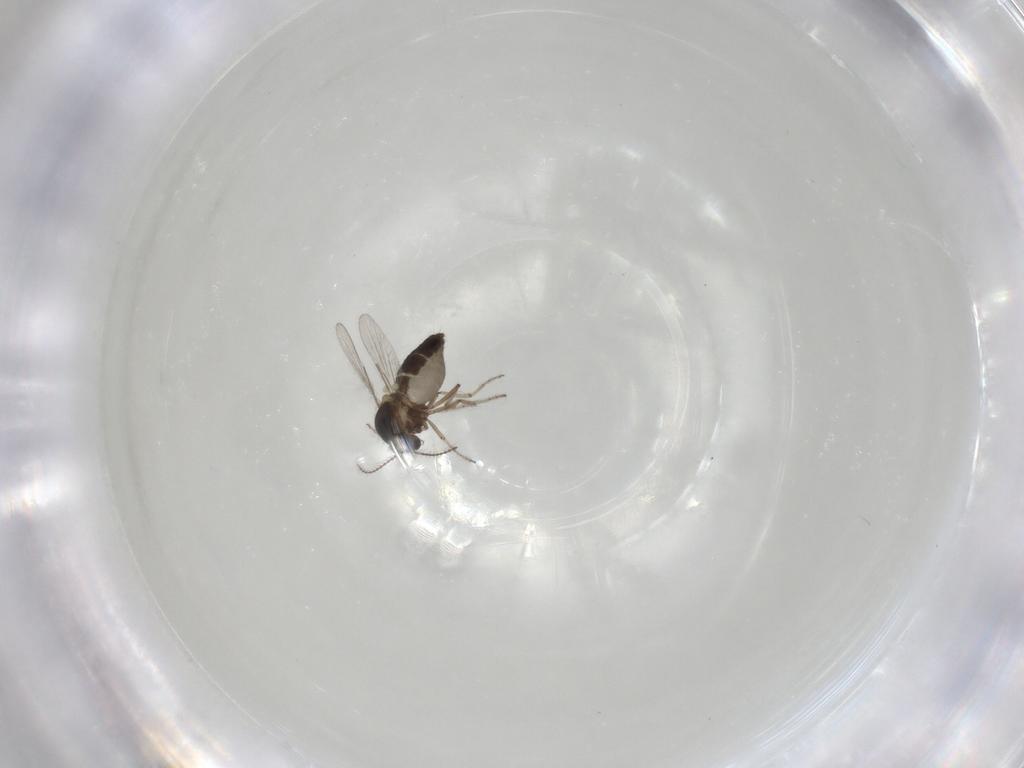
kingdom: Animalia
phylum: Arthropoda
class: Insecta
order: Diptera
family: Ceratopogonidae
